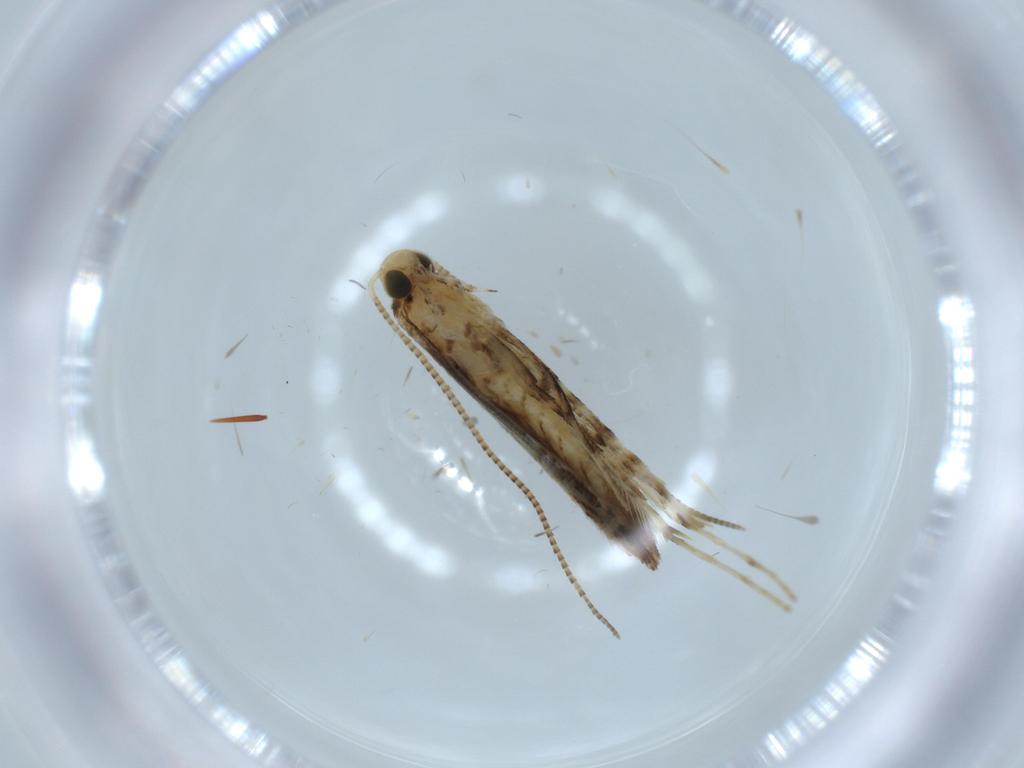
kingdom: Animalia
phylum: Arthropoda
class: Insecta
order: Lepidoptera
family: Gracillariidae
